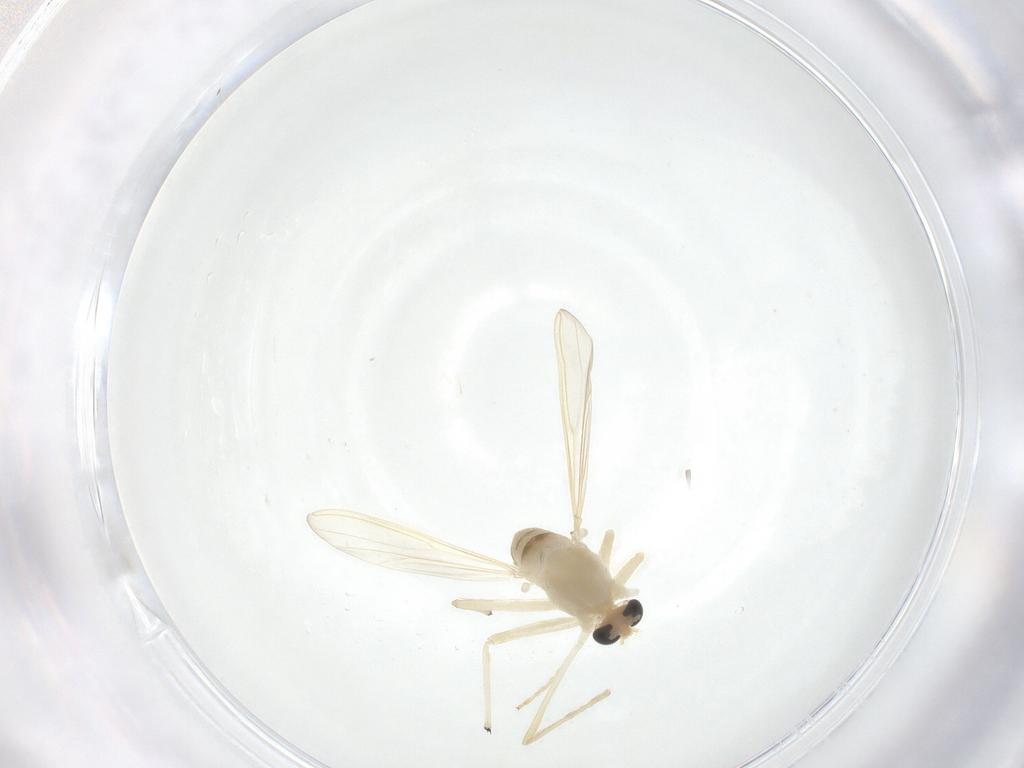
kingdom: Animalia
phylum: Arthropoda
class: Insecta
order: Diptera
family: Chironomidae
